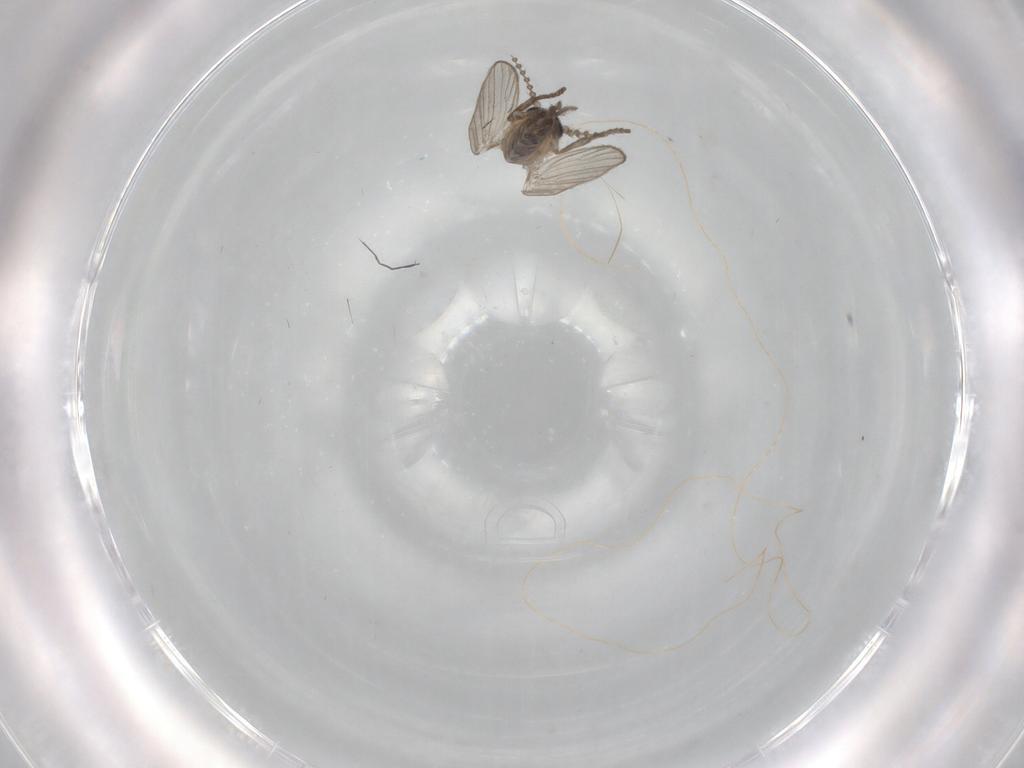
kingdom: Animalia
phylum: Arthropoda
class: Insecta
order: Diptera
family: Psychodidae
